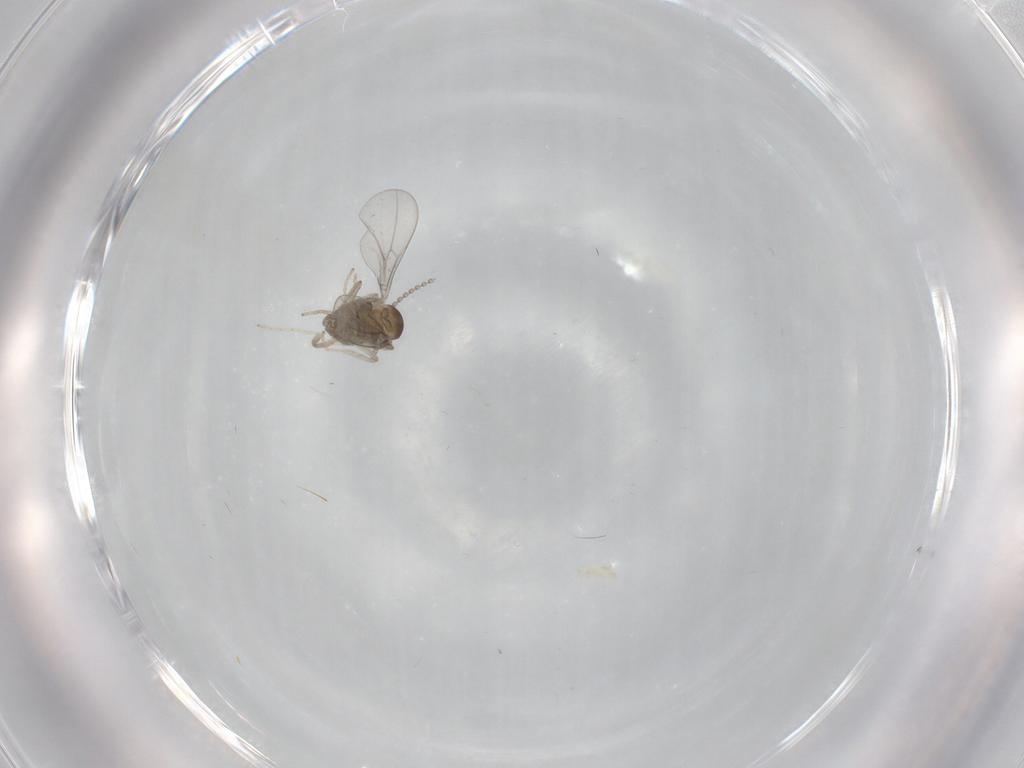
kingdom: Animalia
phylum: Arthropoda
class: Insecta
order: Diptera
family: Cecidomyiidae
